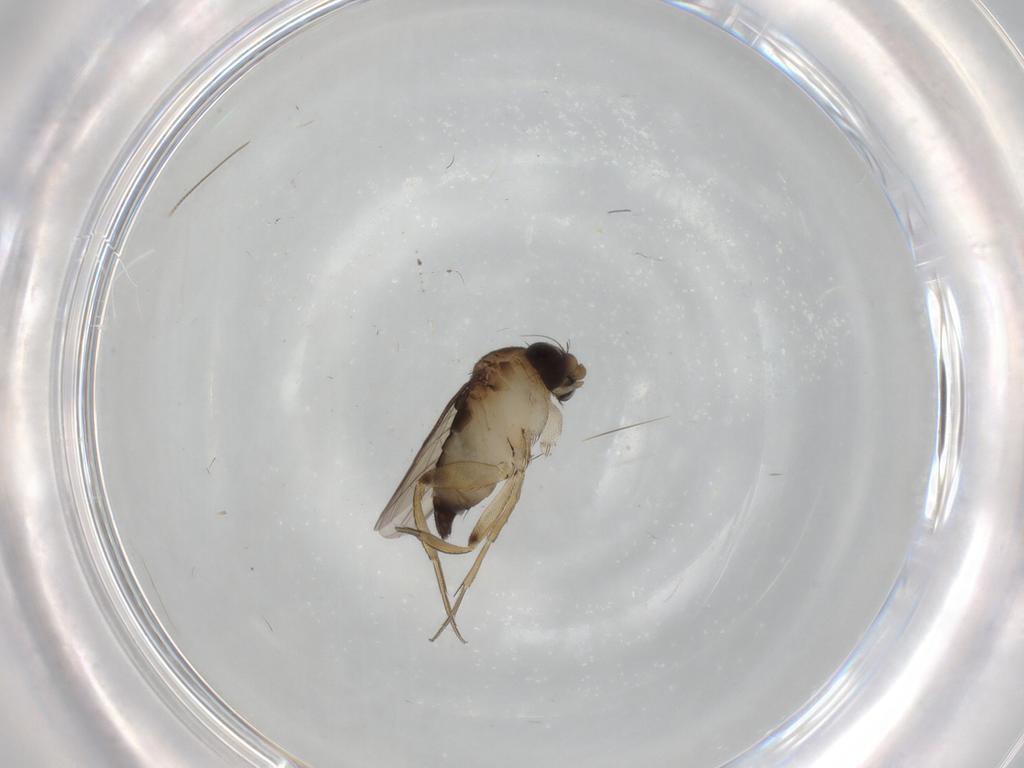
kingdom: Animalia
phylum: Arthropoda
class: Insecta
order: Diptera
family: Phoridae
